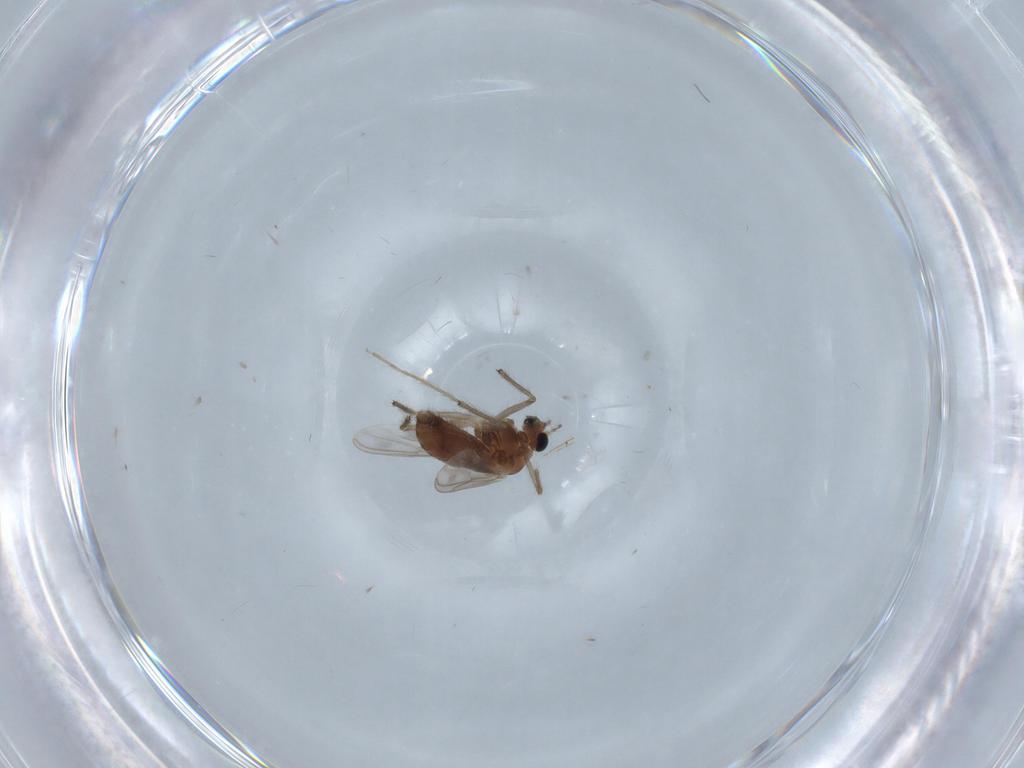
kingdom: Animalia
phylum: Arthropoda
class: Insecta
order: Diptera
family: Chironomidae
